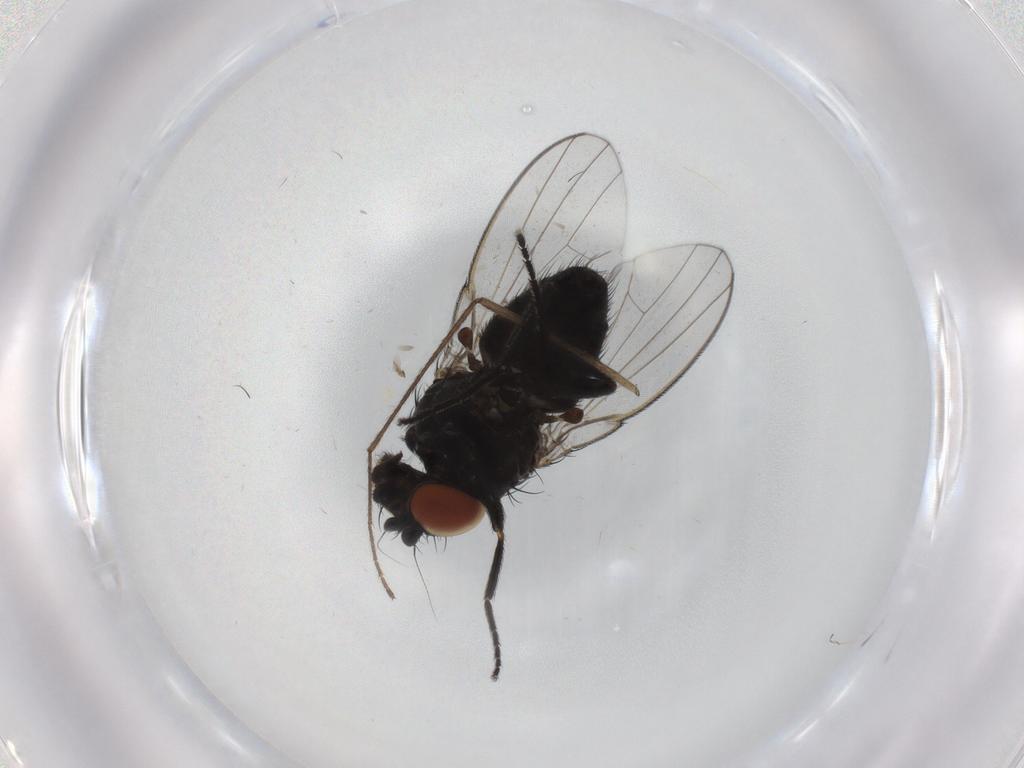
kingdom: Animalia
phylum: Arthropoda
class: Insecta
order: Diptera
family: Milichiidae
